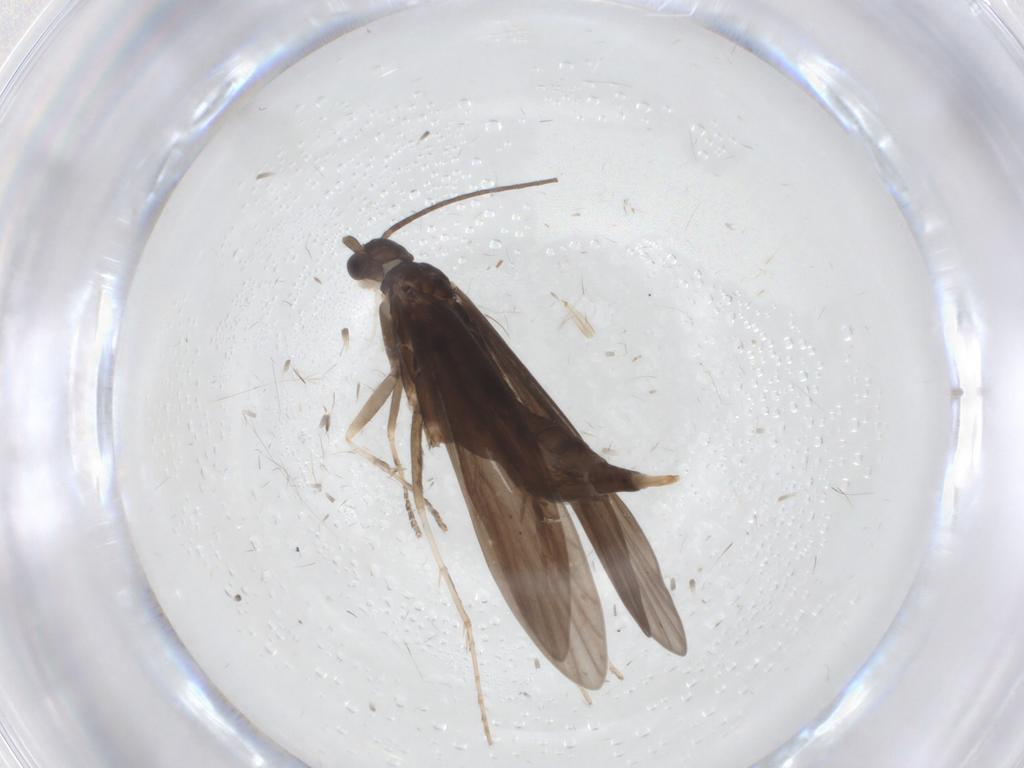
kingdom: Animalia
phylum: Arthropoda
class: Insecta
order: Trichoptera
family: Xiphocentronidae
